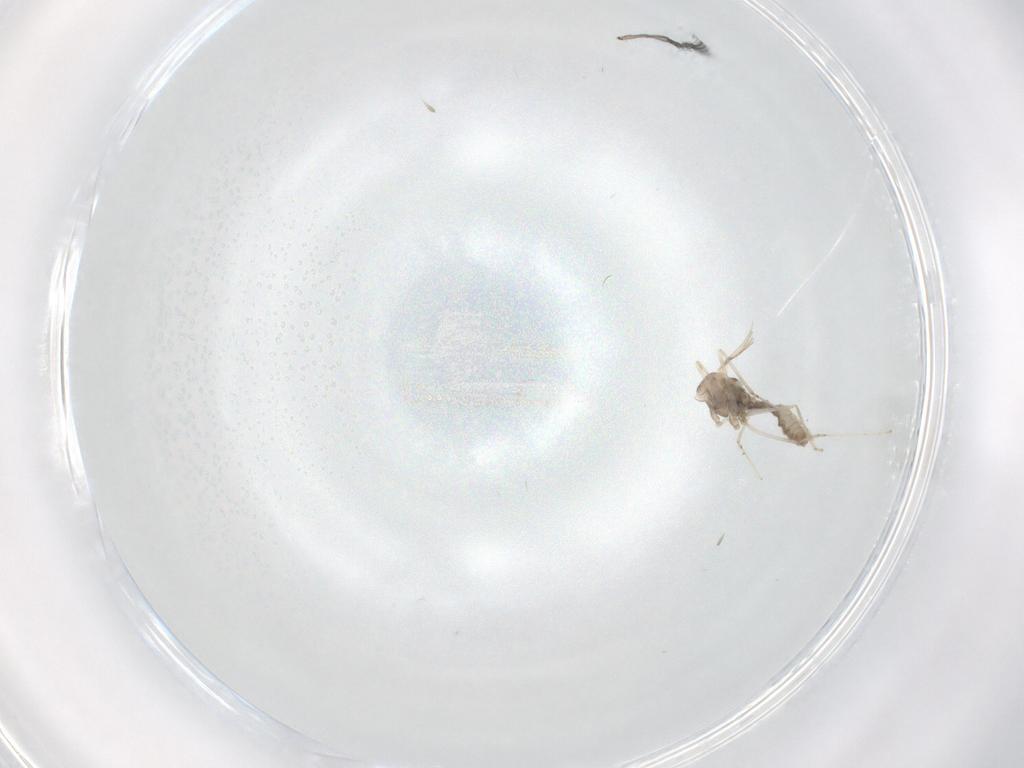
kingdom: Animalia
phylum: Arthropoda
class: Insecta
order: Diptera
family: Cecidomyiidae
